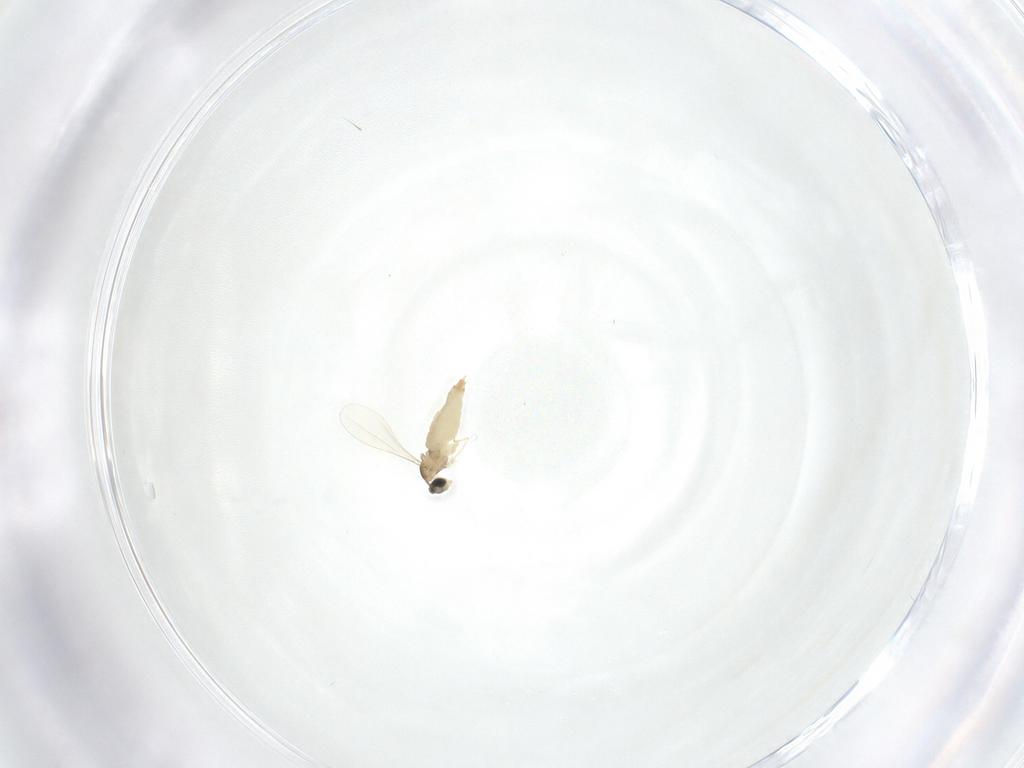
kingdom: Animalia
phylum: Arthropoda
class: Insecta
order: Diptera
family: Cecidomyiidae
